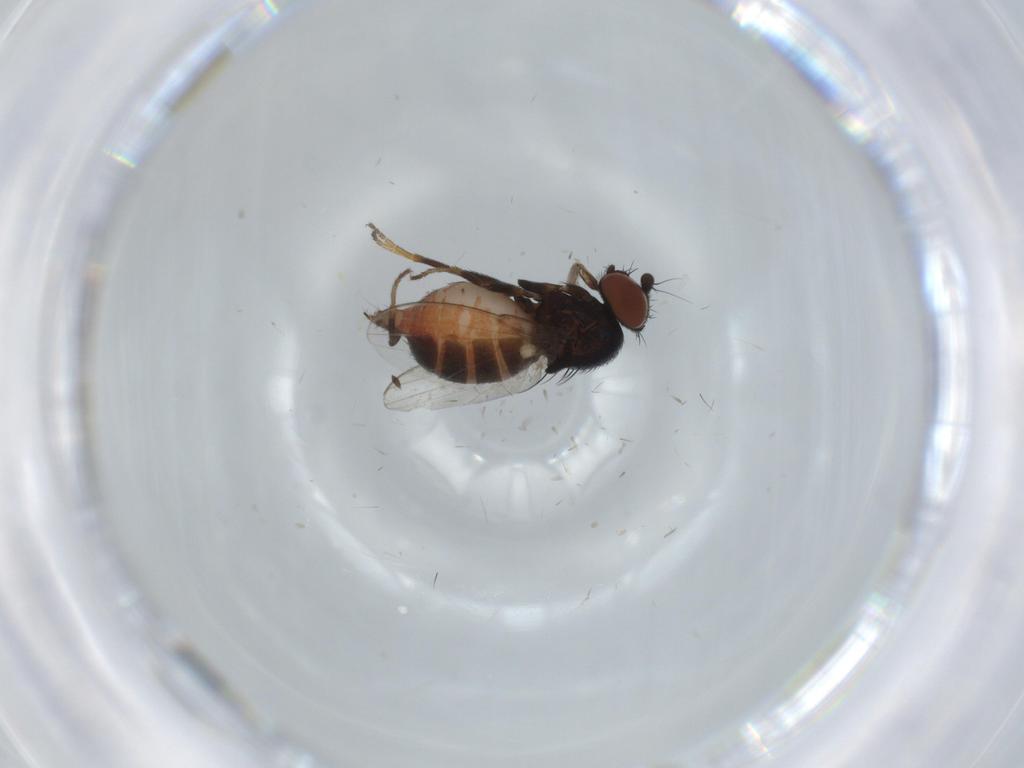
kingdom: Animalia
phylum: Arthropoda
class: Insecta
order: Diptera
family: Milichiidae
